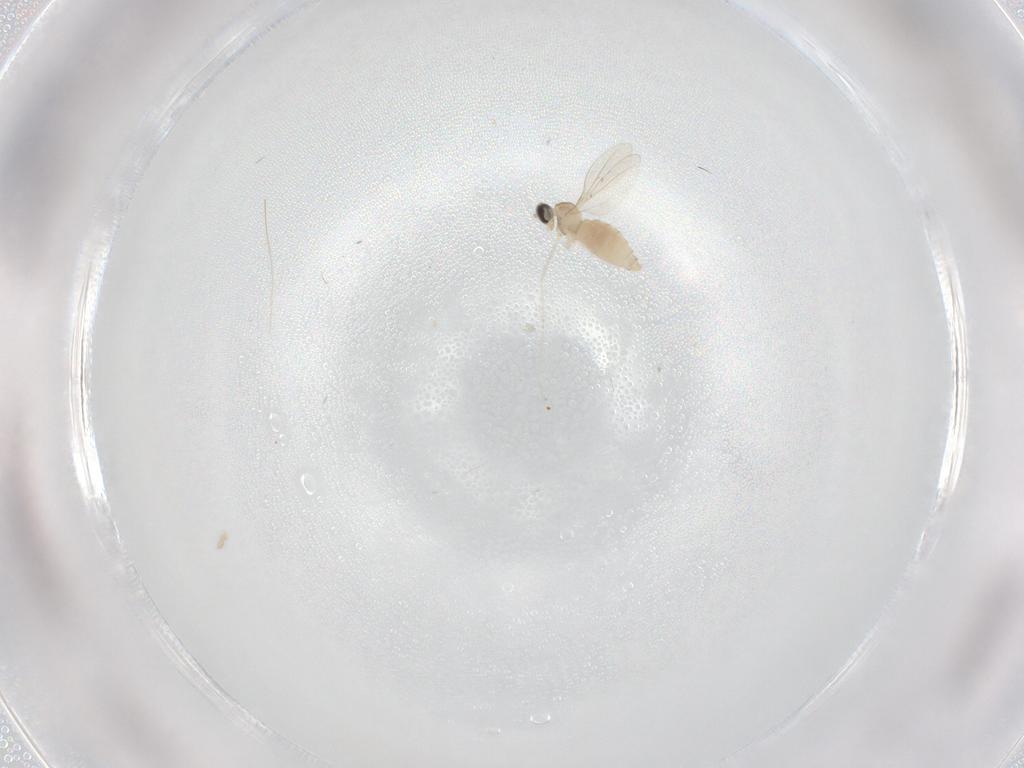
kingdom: Animalia
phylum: Arthropoda
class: Insecta
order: Diptera
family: Cecidomyiidae
